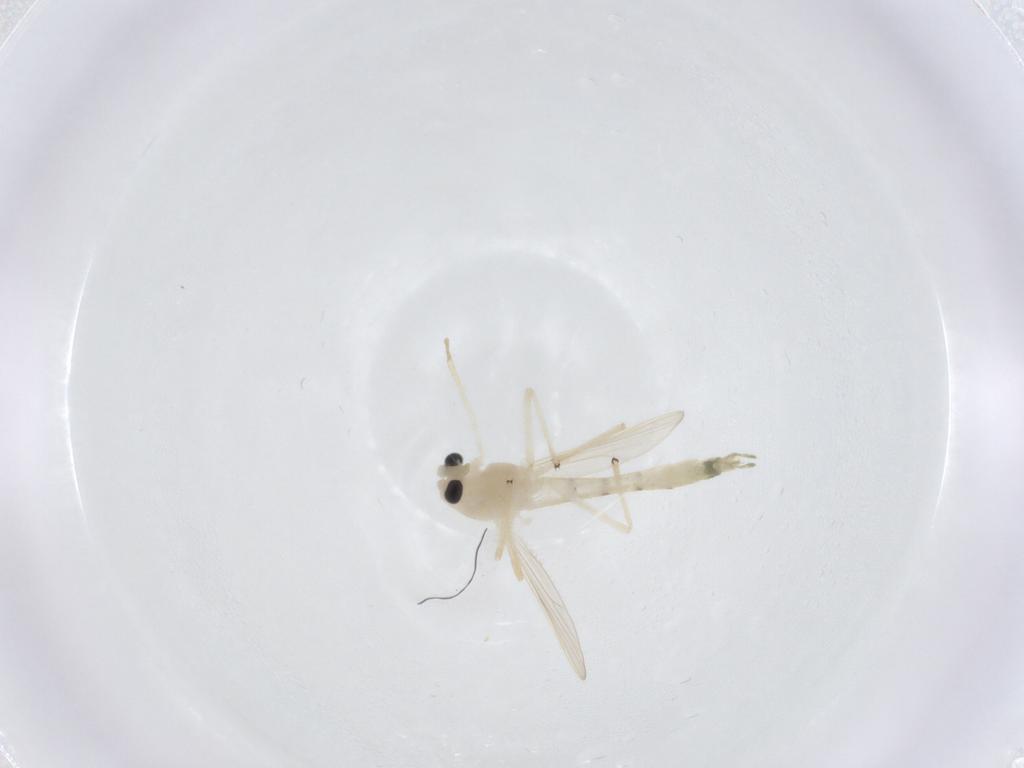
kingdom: Animalia
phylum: Arthropoda
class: Insecta
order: Diptera
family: Chironomidae
